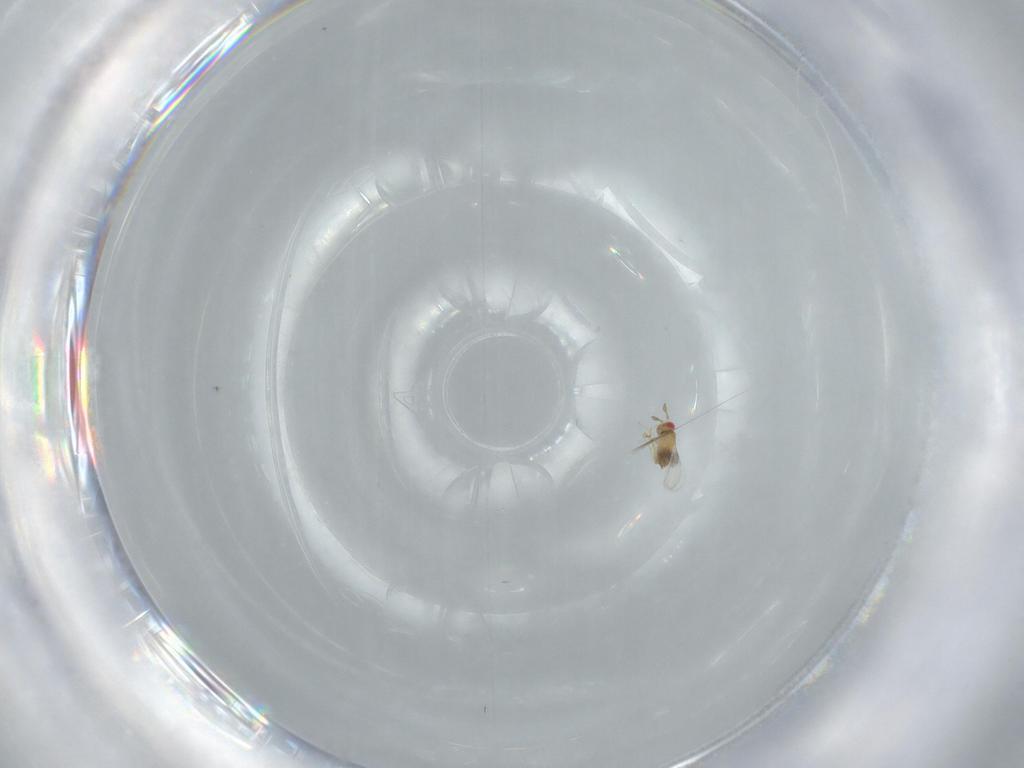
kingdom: Animalia
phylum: Arthropoda
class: Insecta
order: Hymenoptera
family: Trichogrammatidae
